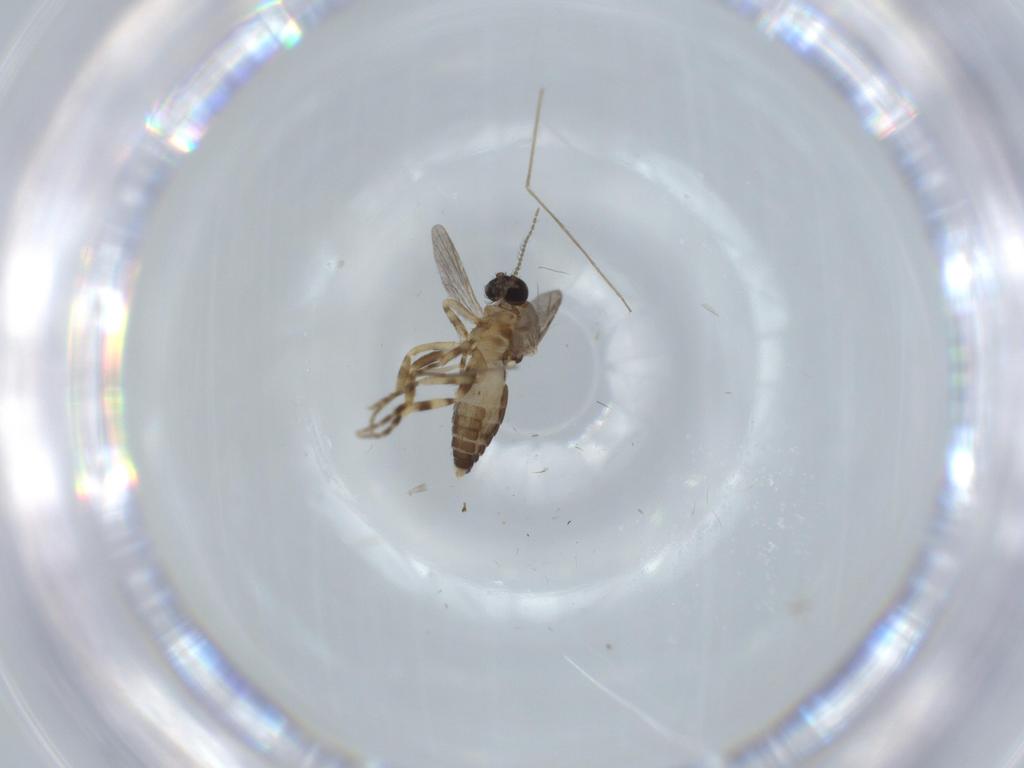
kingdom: Animalia
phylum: Arthropoda
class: Insecta
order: Diptera
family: Chironomidae
